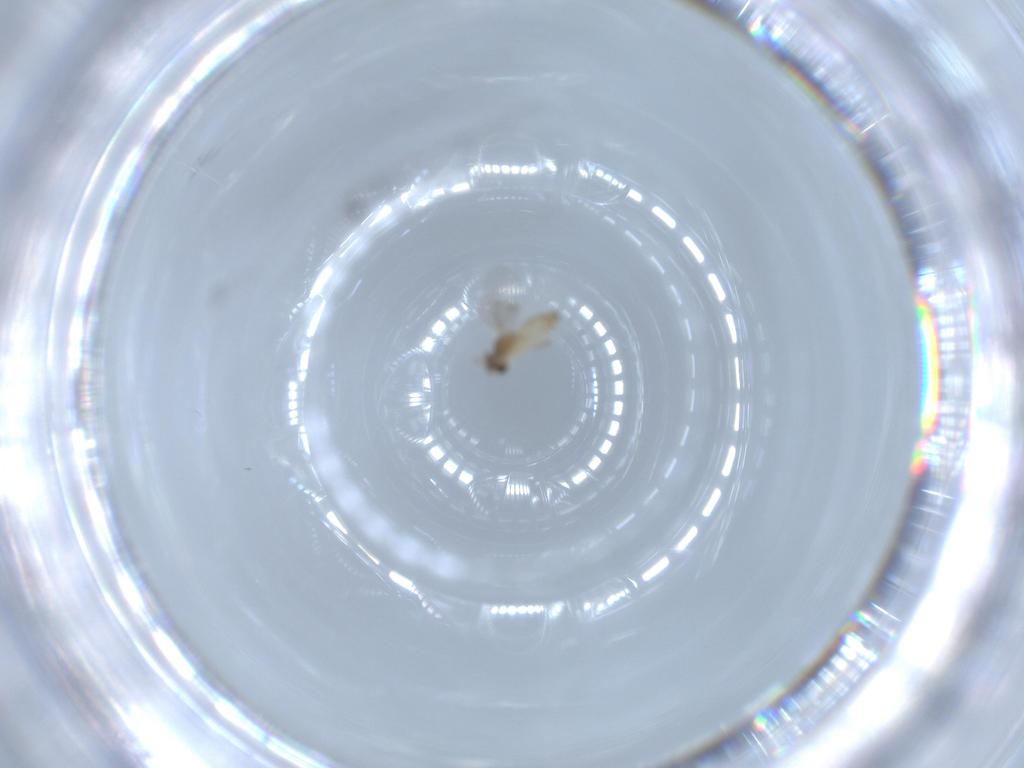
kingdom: Animalia
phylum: Arthropoda
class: Insecta
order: Diptera
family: Cecidomyiidae
